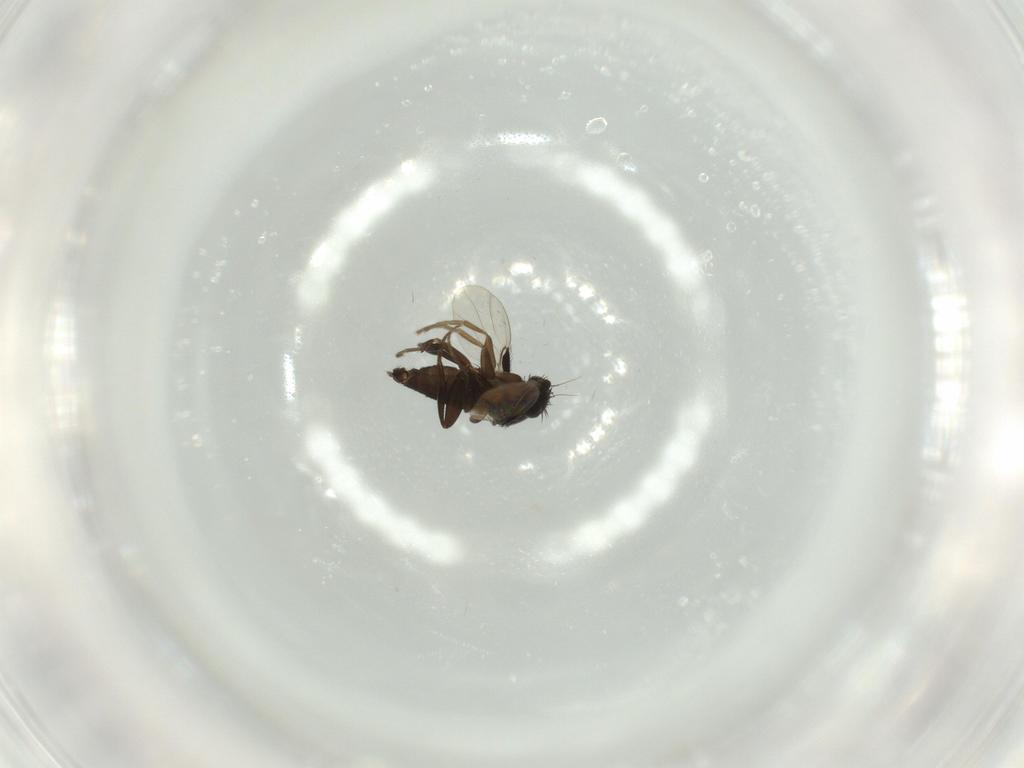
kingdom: Animalia
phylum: Arthropoda
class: Insecta
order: Diptera
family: Phoridae
